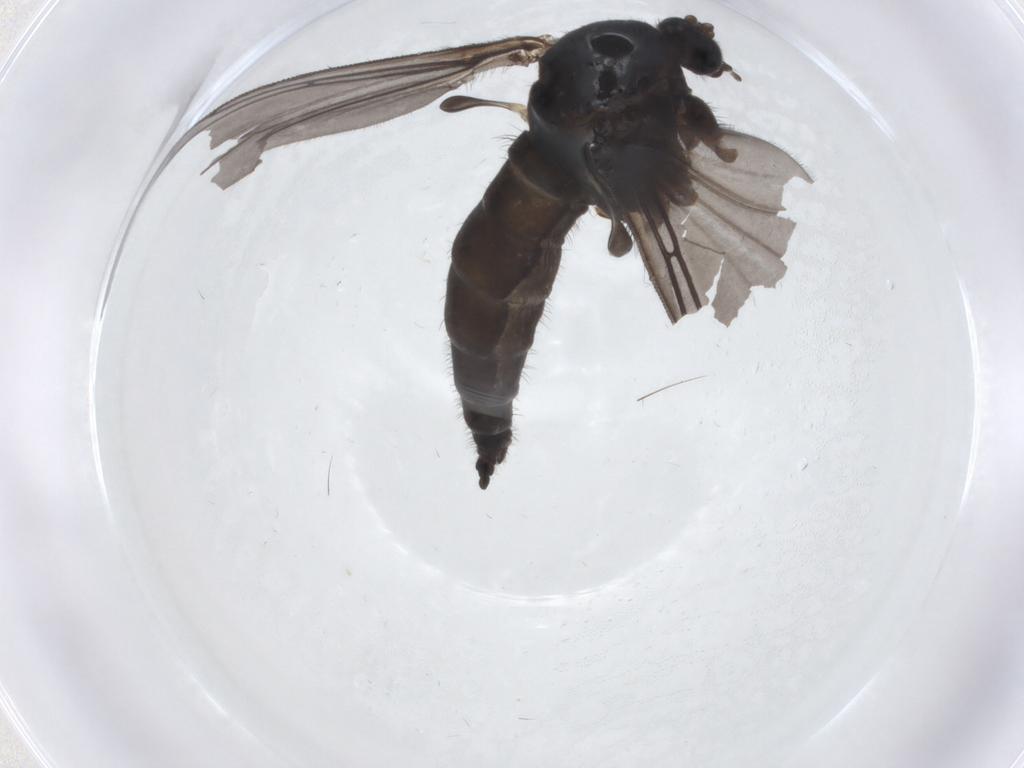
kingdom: Animalia
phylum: Arthropoda
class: Insecta
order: Diptera
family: Sciaridae
